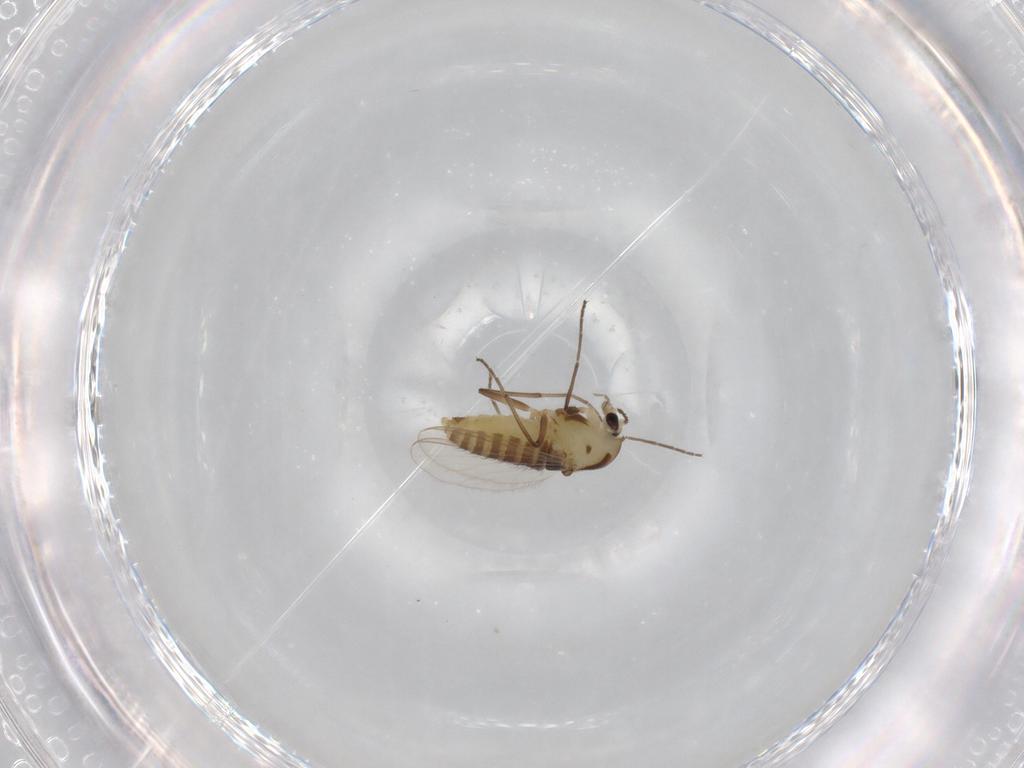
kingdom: Animalia
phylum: Arthropoda
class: Insecta
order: Diptera
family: Chironomidae
